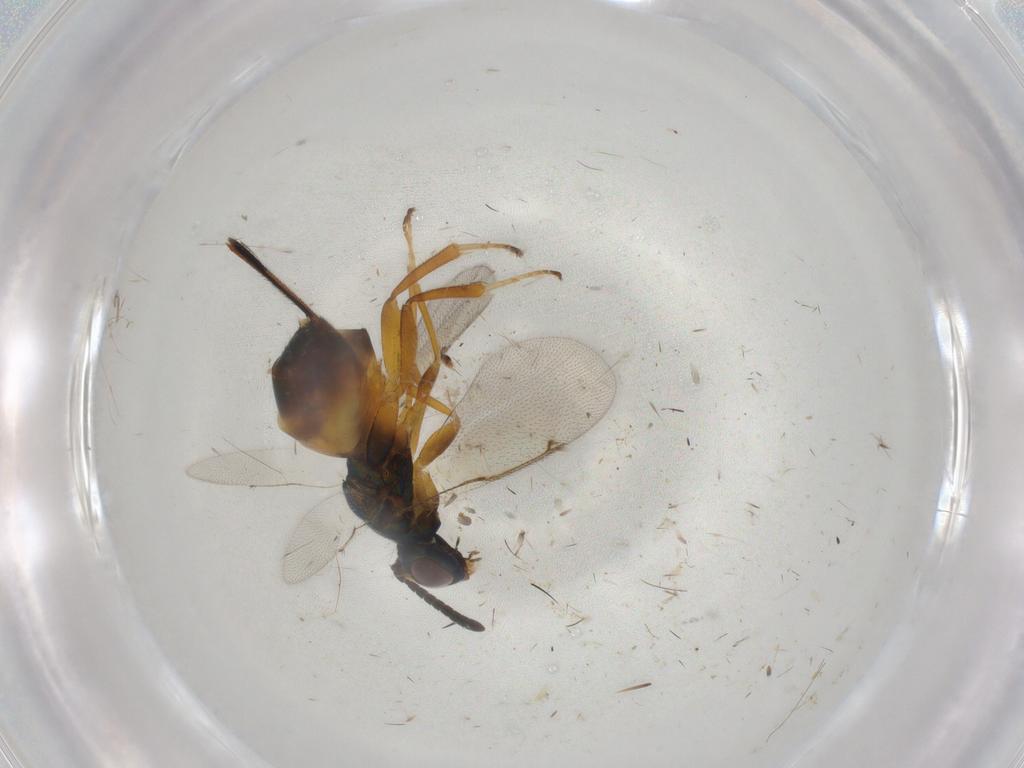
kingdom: Animalia
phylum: Arthropoda
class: Insecta
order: Hymenoptera
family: Torymidae
